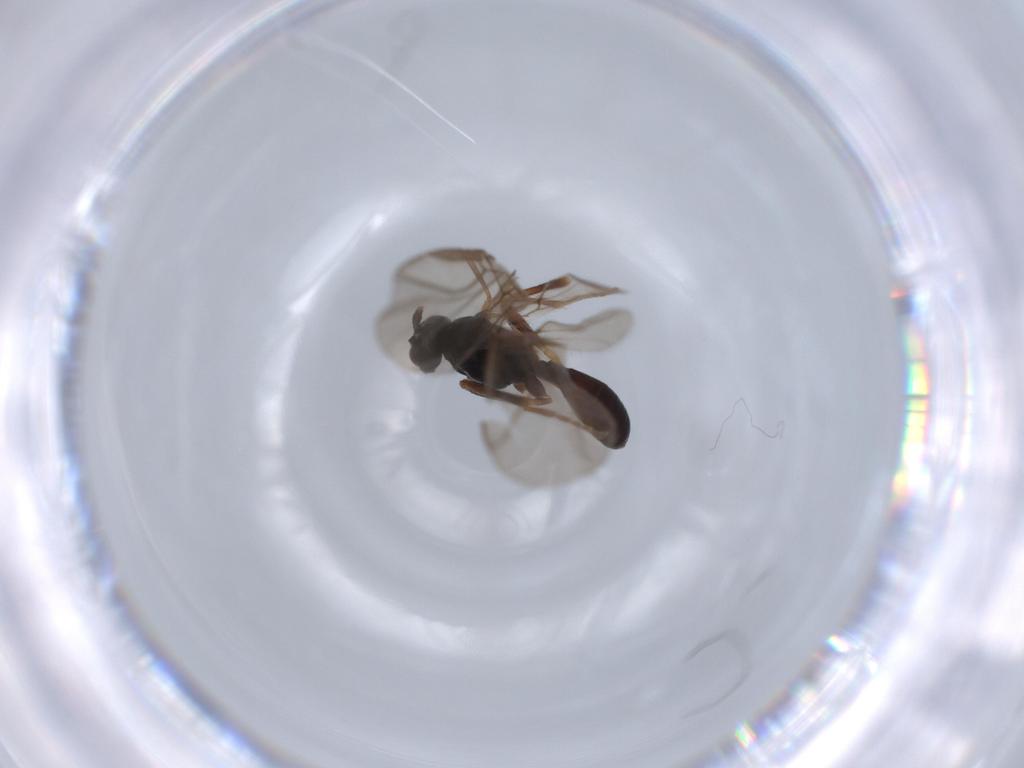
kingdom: Animalia
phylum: Arthropoda
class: Insecta
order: Hymenoptera
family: Braconidae
